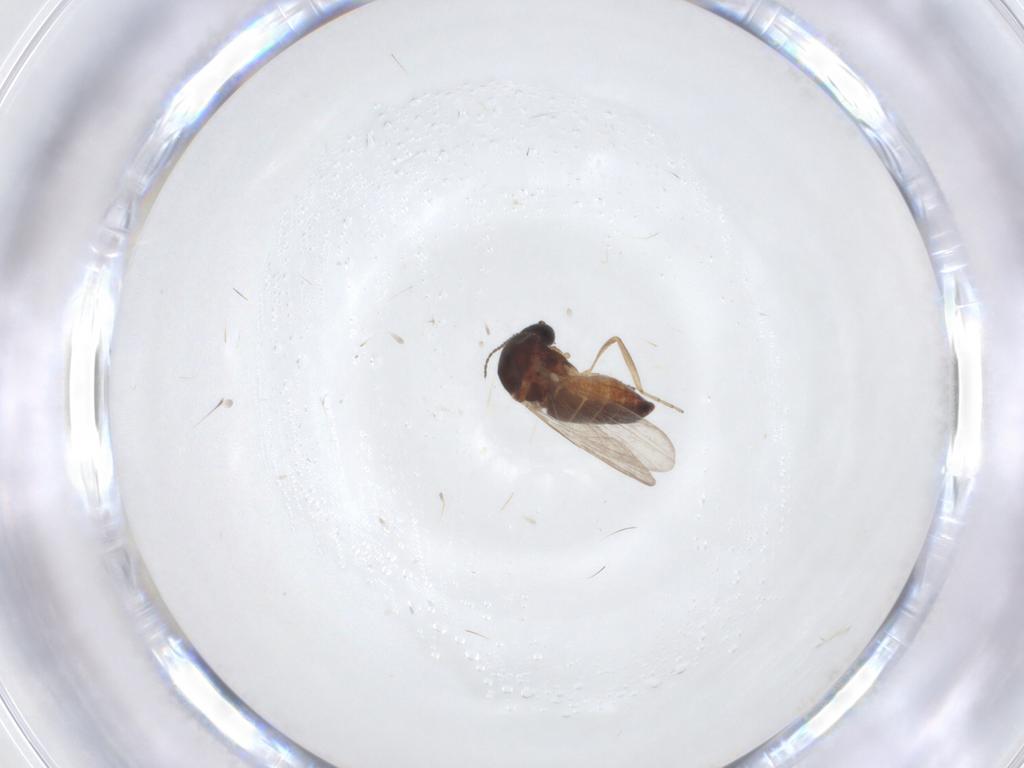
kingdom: Animalia
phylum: Arthropoda
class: Insecta
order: Diptera
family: Ceratopogonidae
